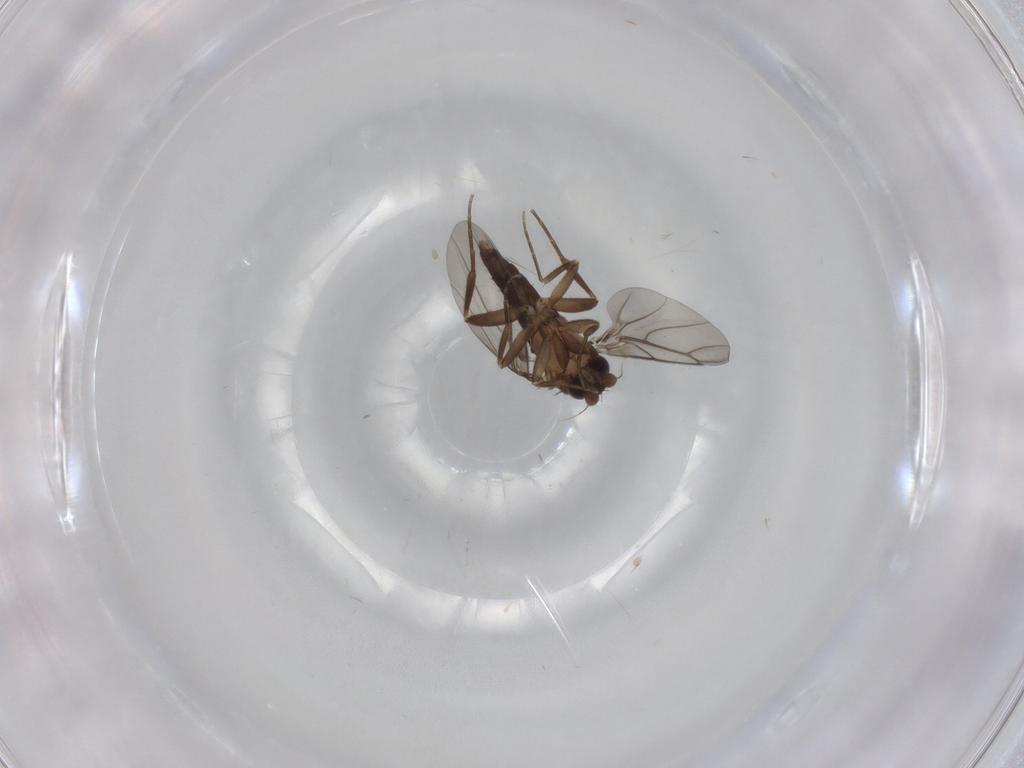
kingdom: Animalia
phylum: Arthropoda
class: Insecta
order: Diptera
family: Phoridae
